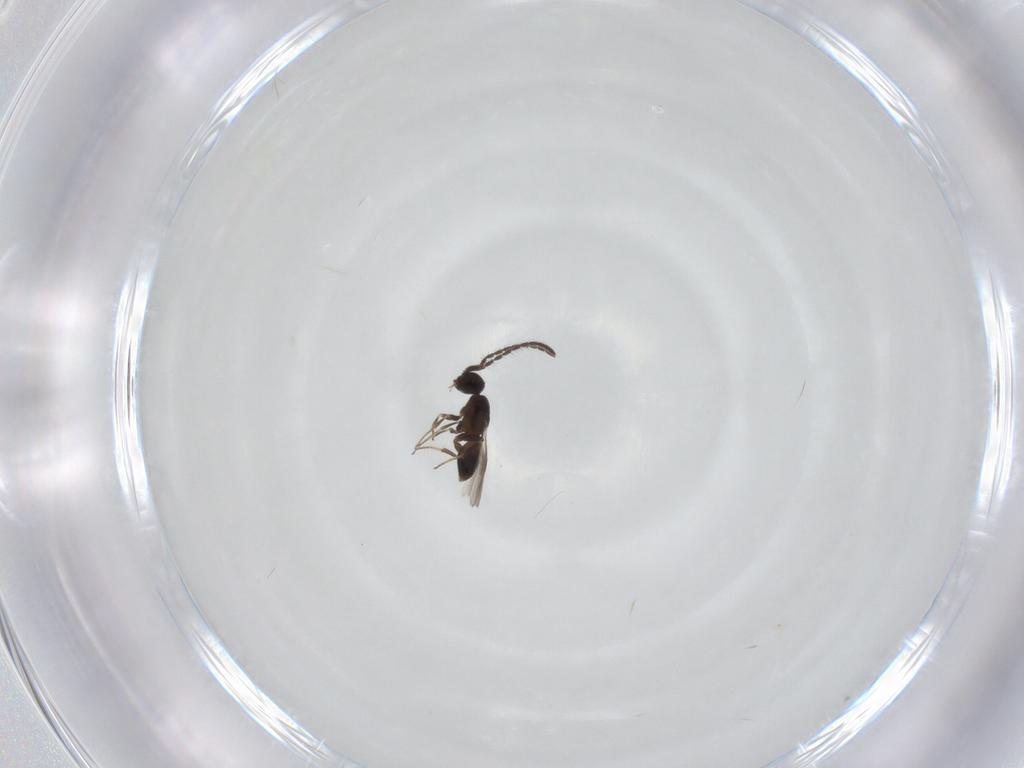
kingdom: Animalia
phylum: Arthropoda
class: Insecta
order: Hymenoptera
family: Megaspilidae
